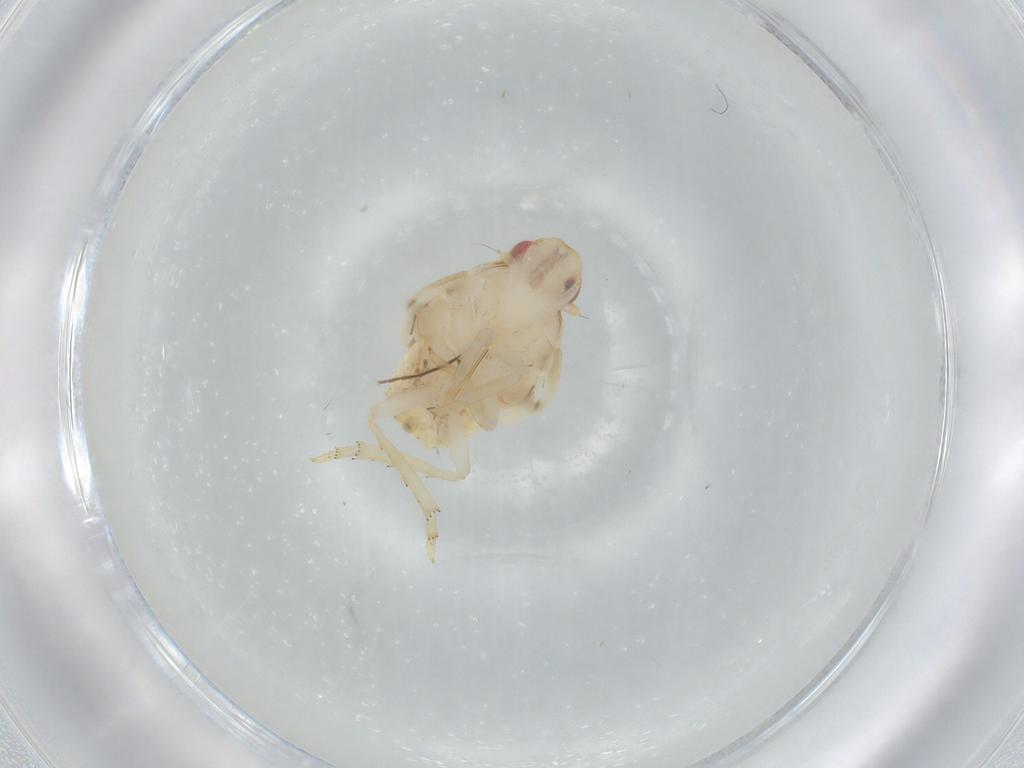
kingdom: Animalia
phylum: Arthropoda
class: Insecta
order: Hemiptera
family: Flatidae
